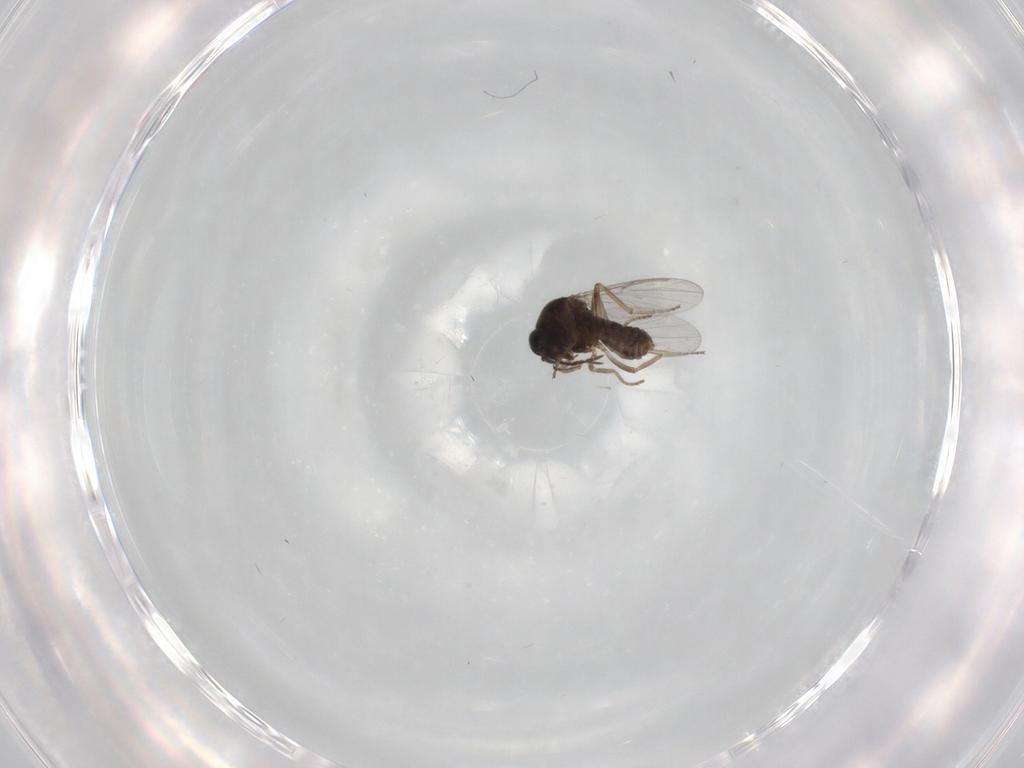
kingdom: Animalia
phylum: Arthropoda
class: Insecta
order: Diptera
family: Ceratopogonidae
